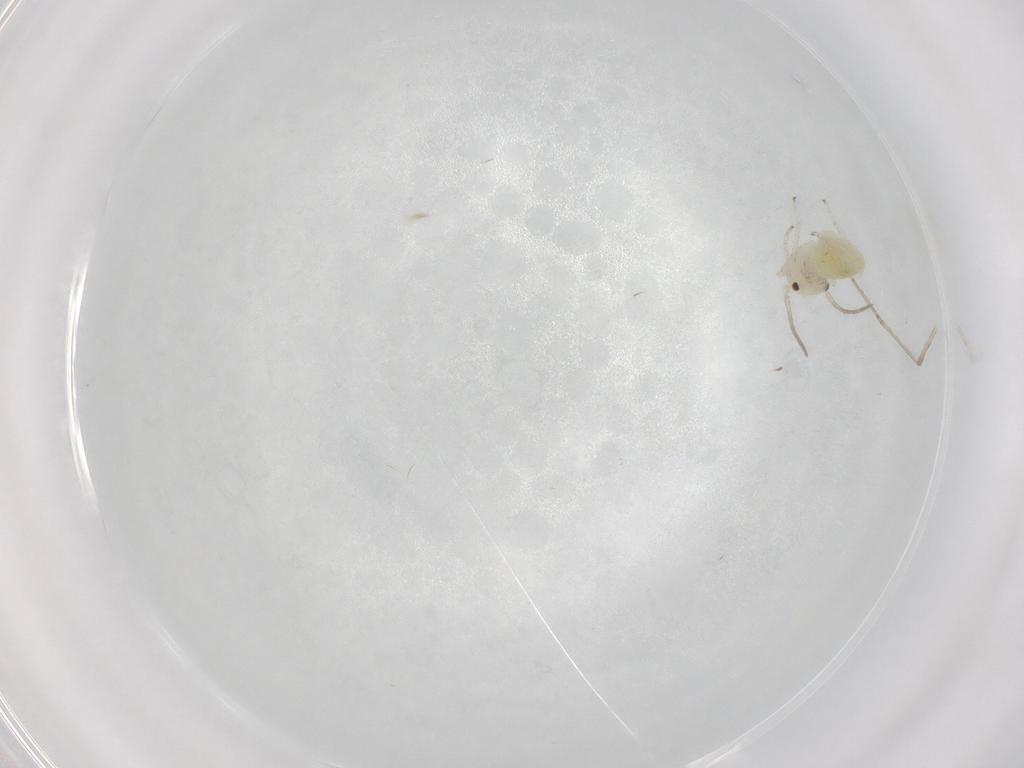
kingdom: Animalia
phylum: Arthropoda
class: Insecta
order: Psocodea
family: Caeciliusidae
